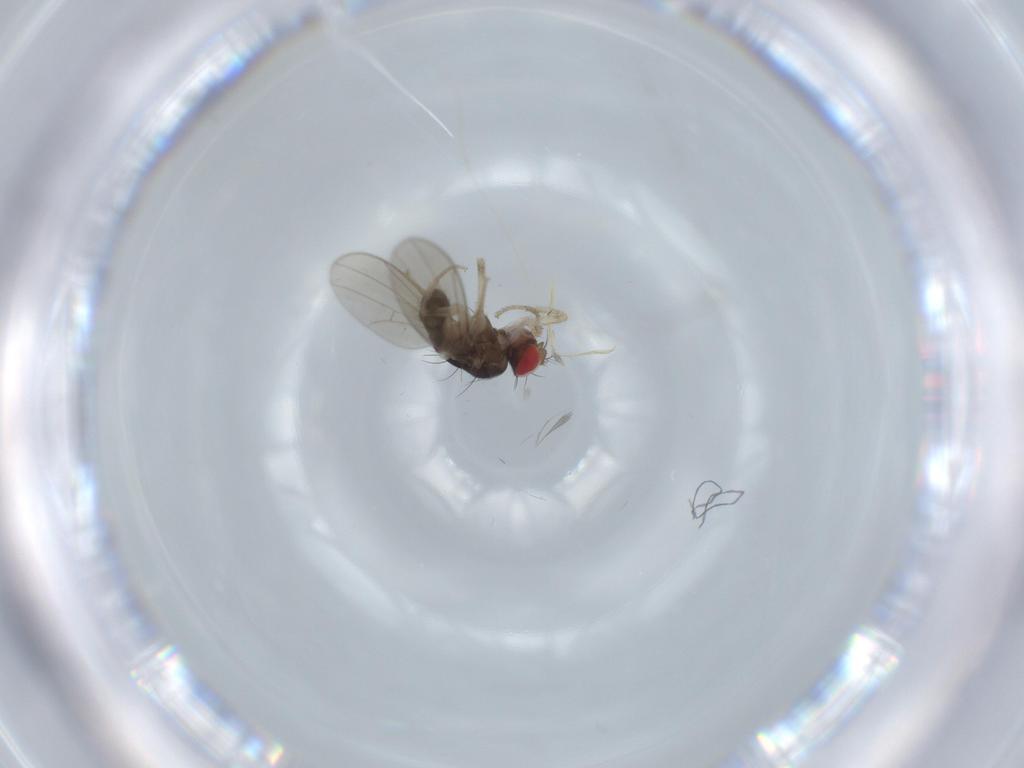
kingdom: Animalia
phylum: Arthropoda
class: Insecta
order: Diptera
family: Drosophilidae
